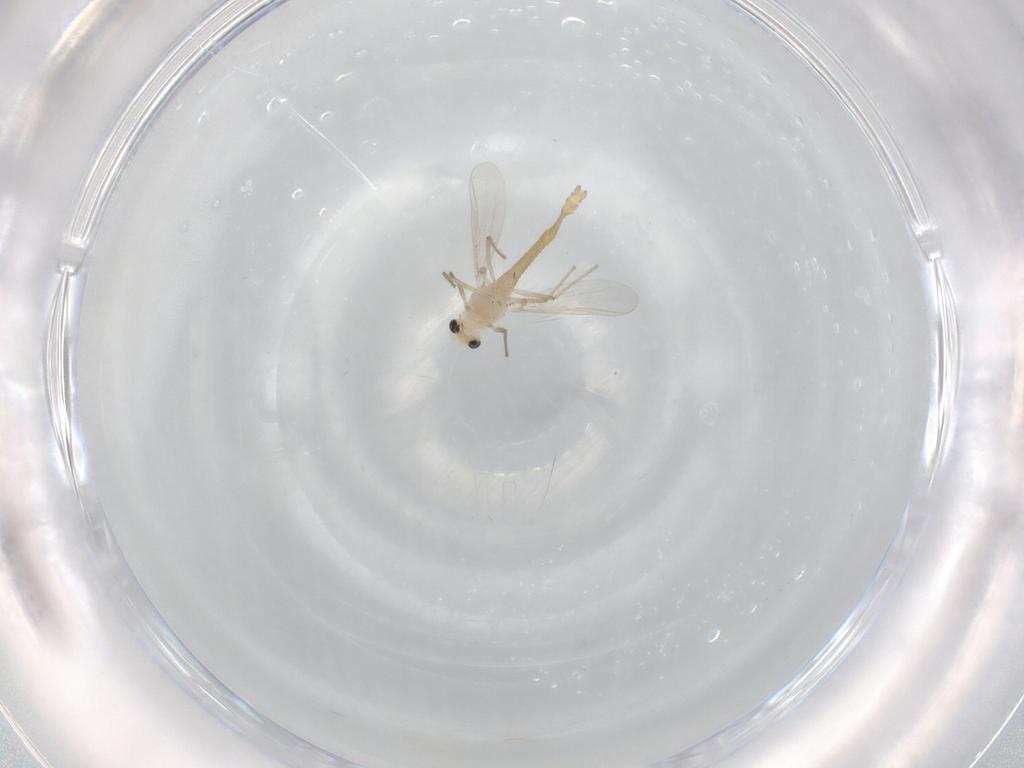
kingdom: Animalia
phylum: Arthropoda
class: Insecta
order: Diptera
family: Chironomidae
